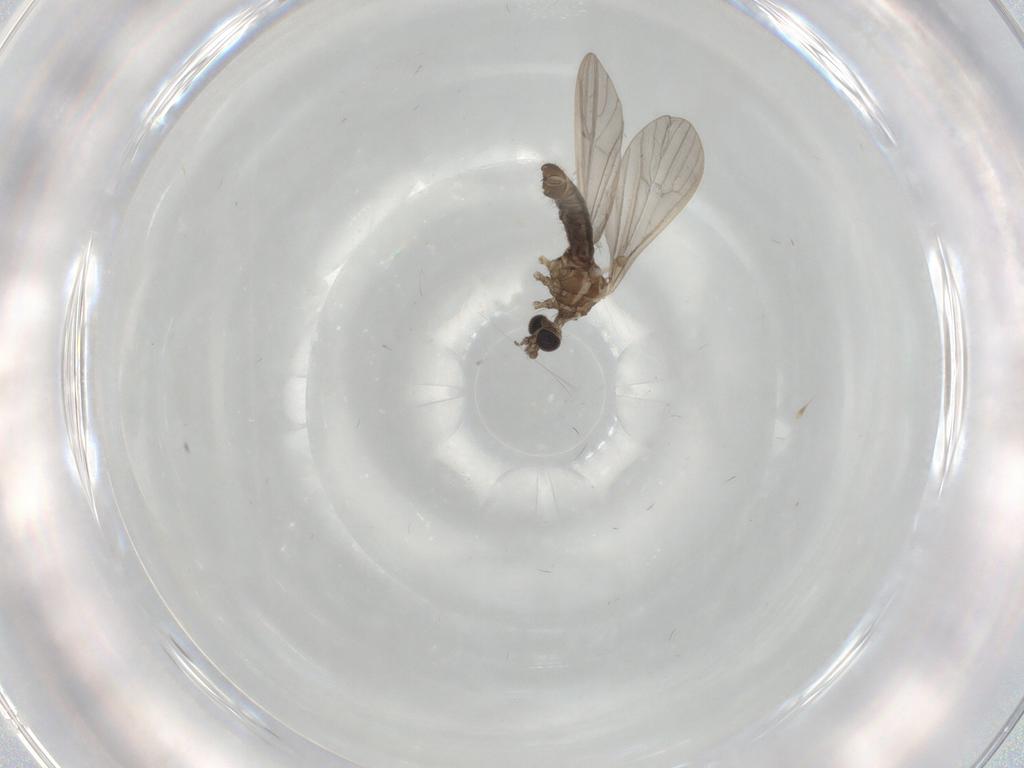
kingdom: Animalia
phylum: Arthropoda
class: Insecta
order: Diptera
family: Limoniidae
